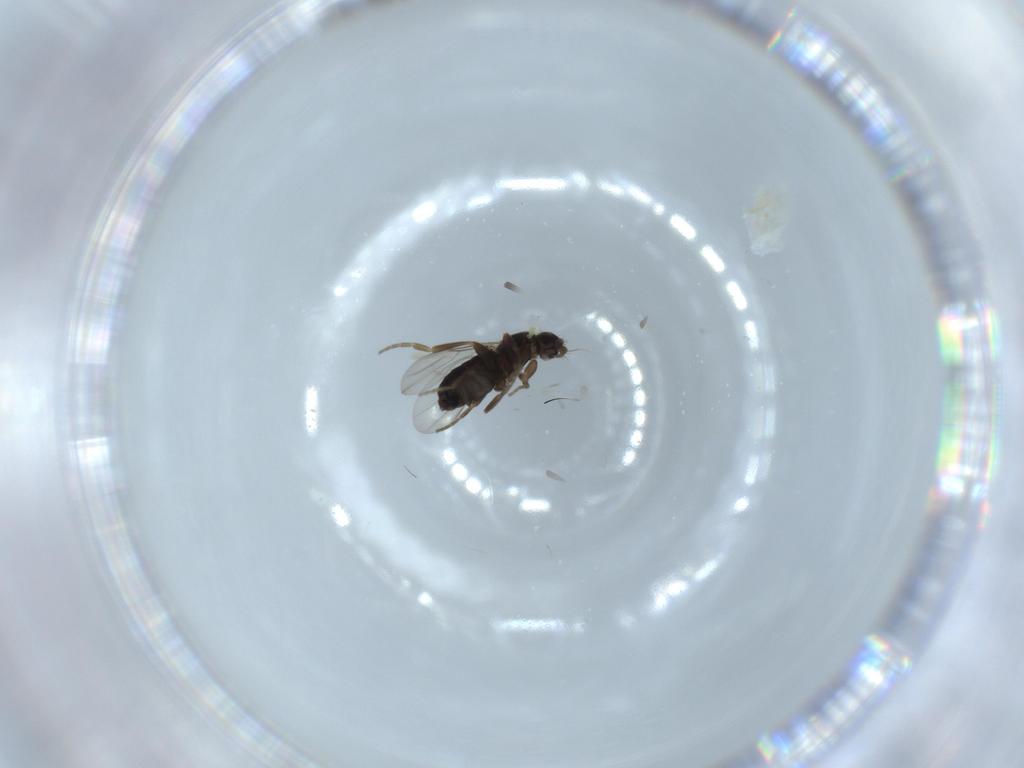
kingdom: Animalia
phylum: Arthropoda
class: Insecta
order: Diptera
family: Phoridae
